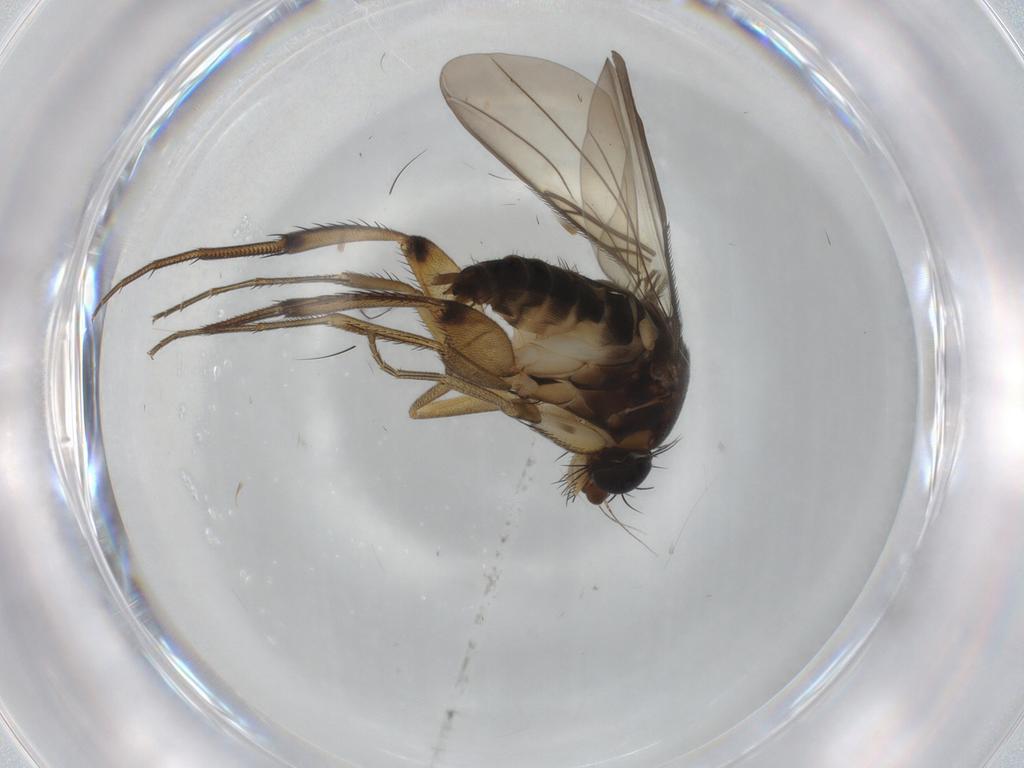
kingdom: Animalia
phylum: Arthropoda
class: Insecta
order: Diptera
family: Phoridae
